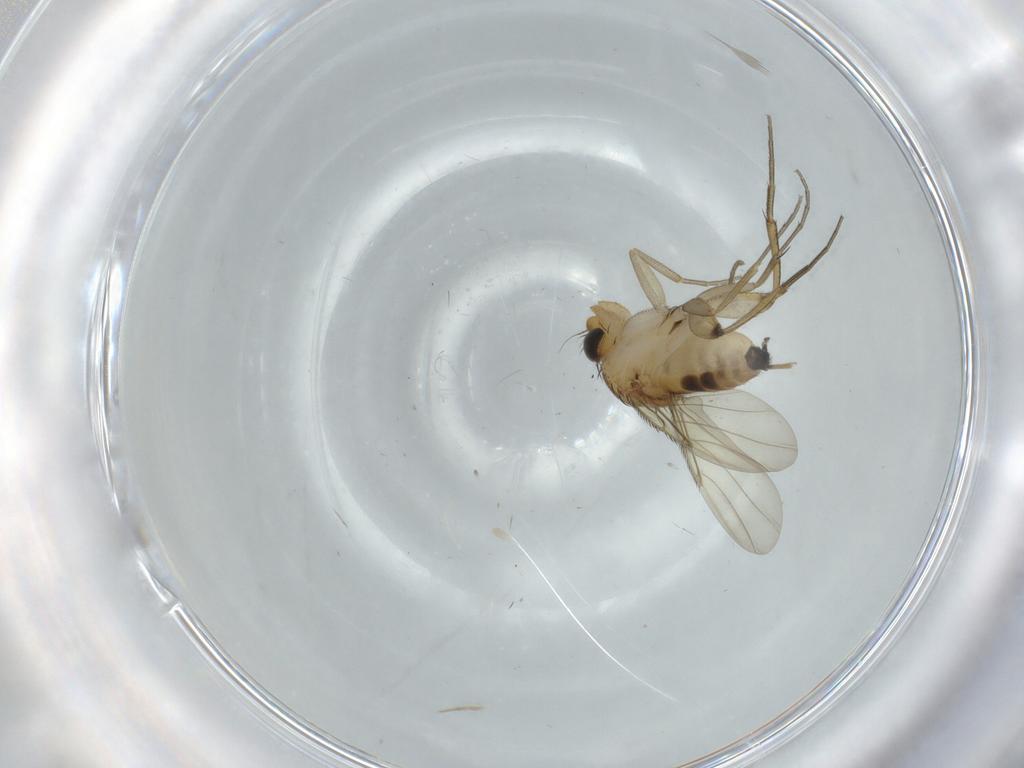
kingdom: Animalia
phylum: Arthropoda
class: Insecta
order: Diptera
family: Phoridae
